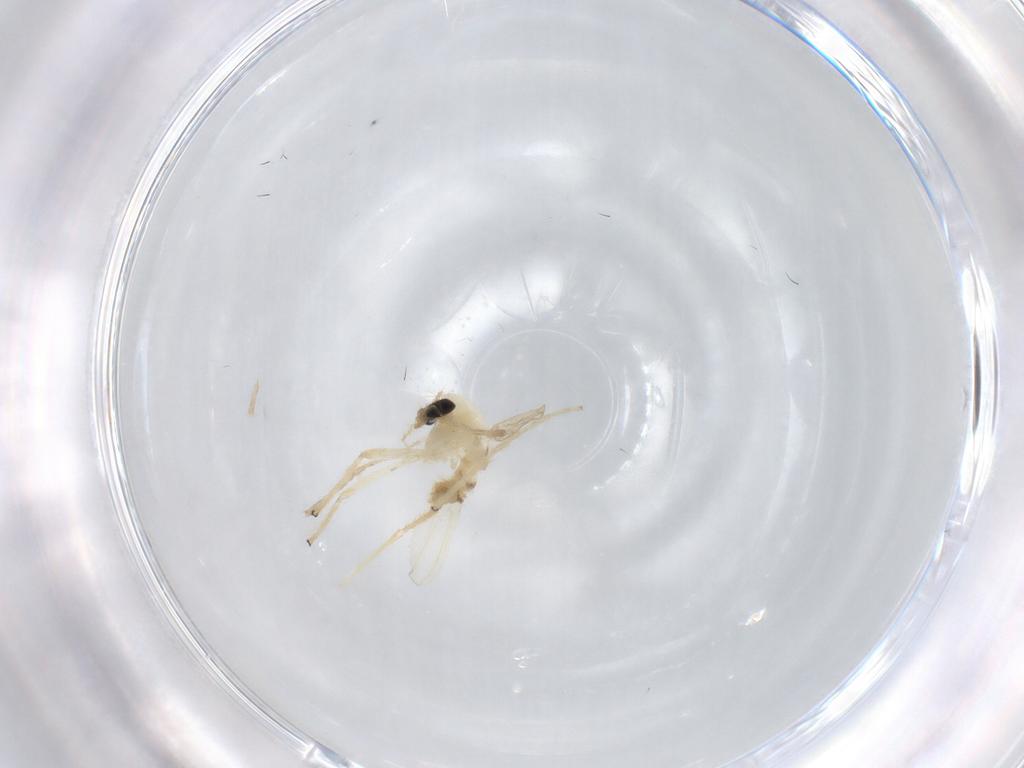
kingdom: Animalia
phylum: Arthropoda
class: Insecta
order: Diptera
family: Chironomidae
